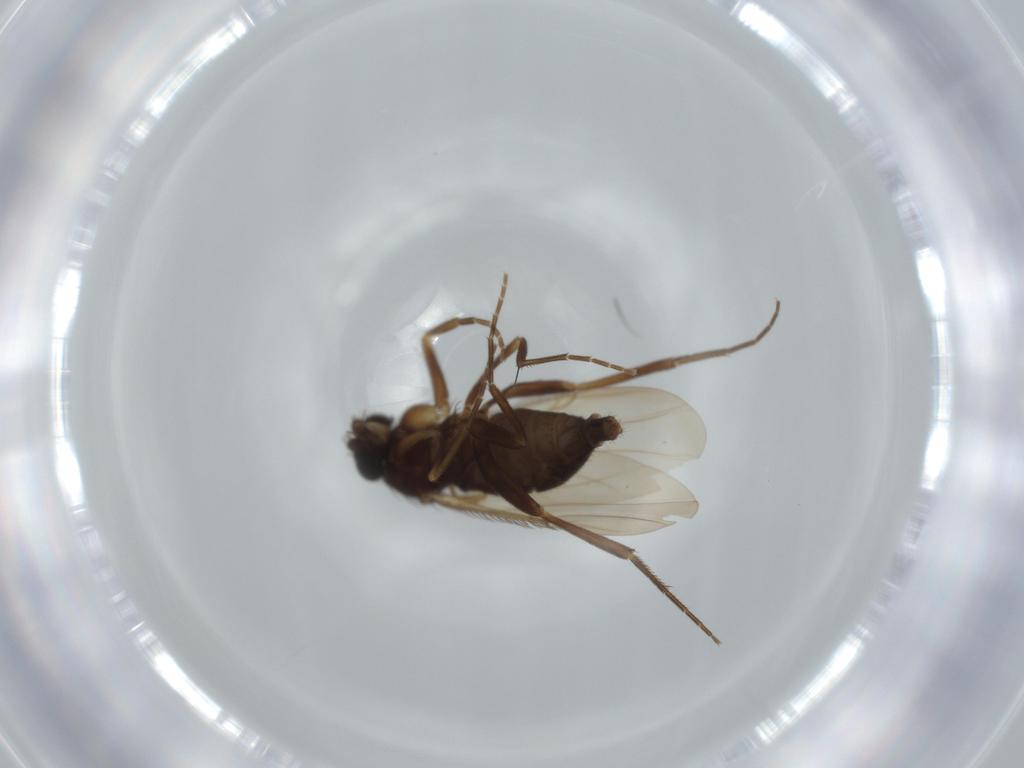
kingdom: Animalia
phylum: Arthropoda
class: Insecta
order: Diptera
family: Phoridae
